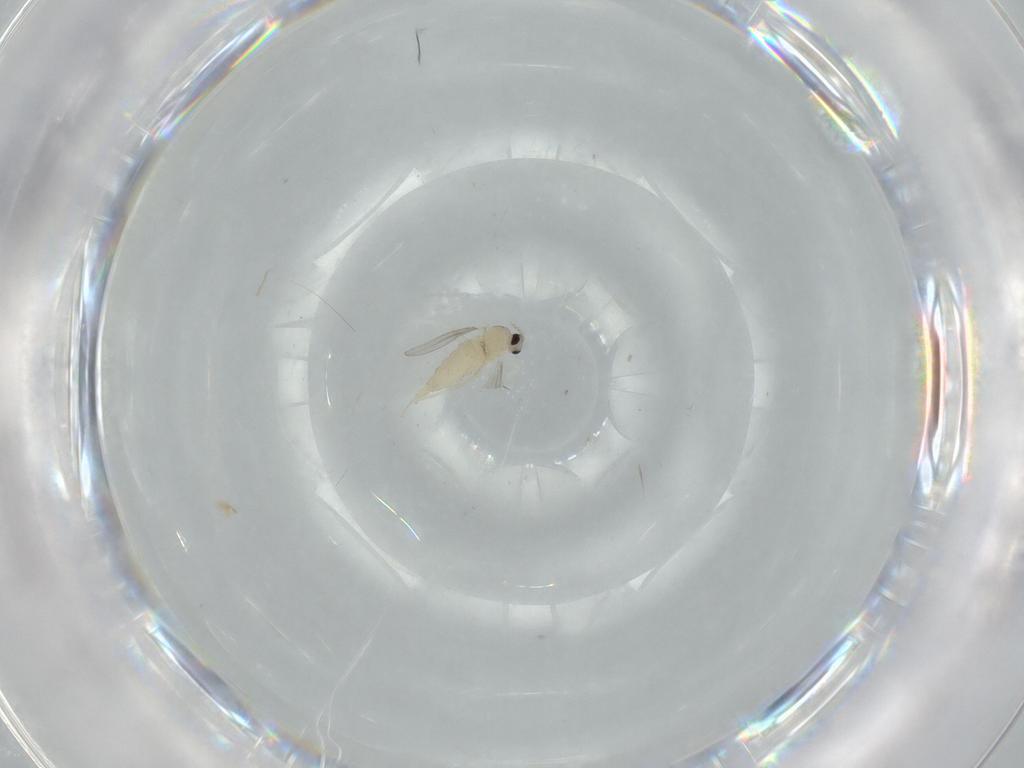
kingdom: Animalia
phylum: Arthropoda
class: Insecta
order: Diptera
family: Cecidomyiidae
